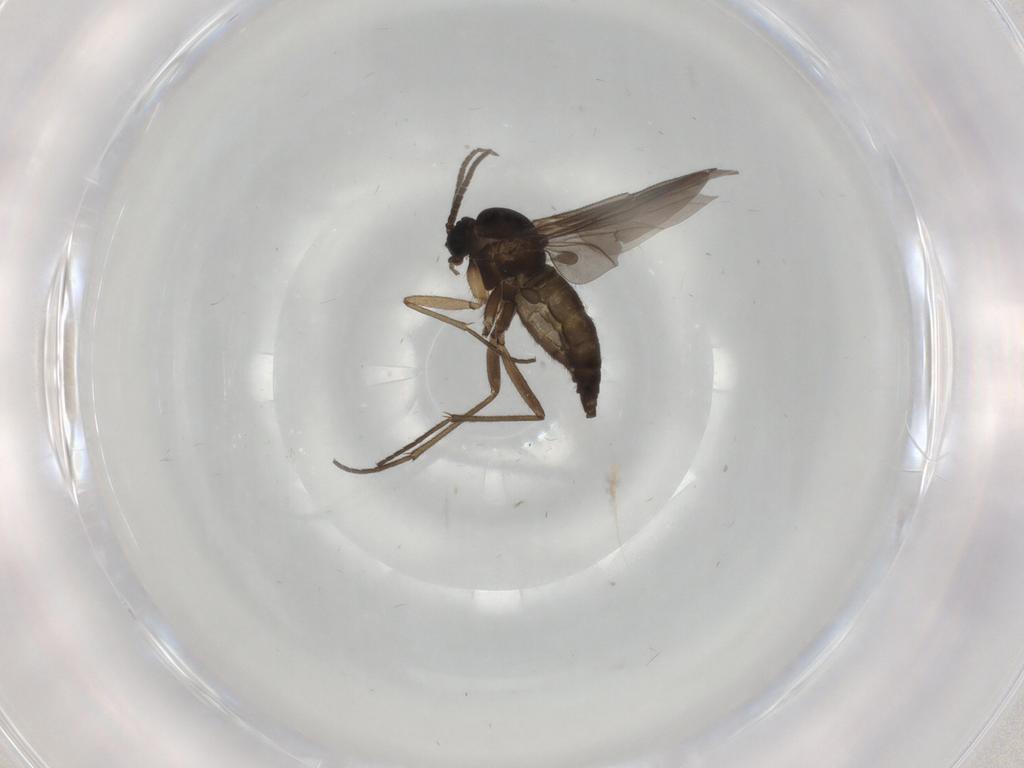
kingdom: Animalia
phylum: Arthropoda
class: Insecta
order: Diptera
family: Sciaridae
